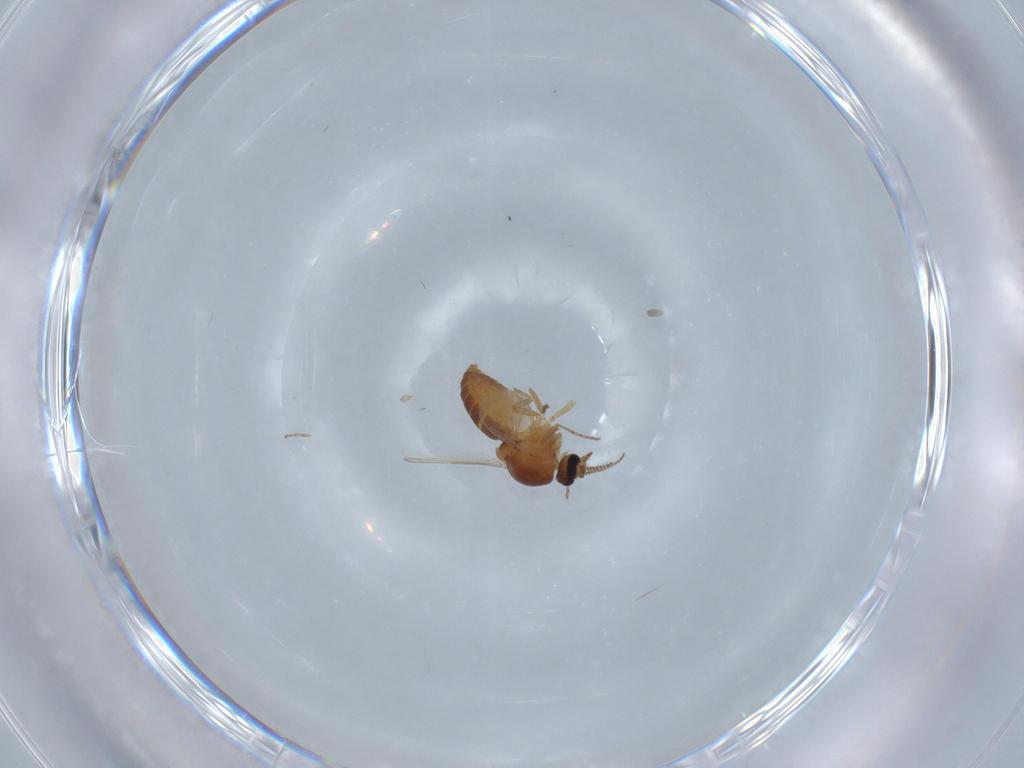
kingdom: Animalia
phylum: Arthropoda
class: Insecta
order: Diptera
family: Ceratopogonidae
